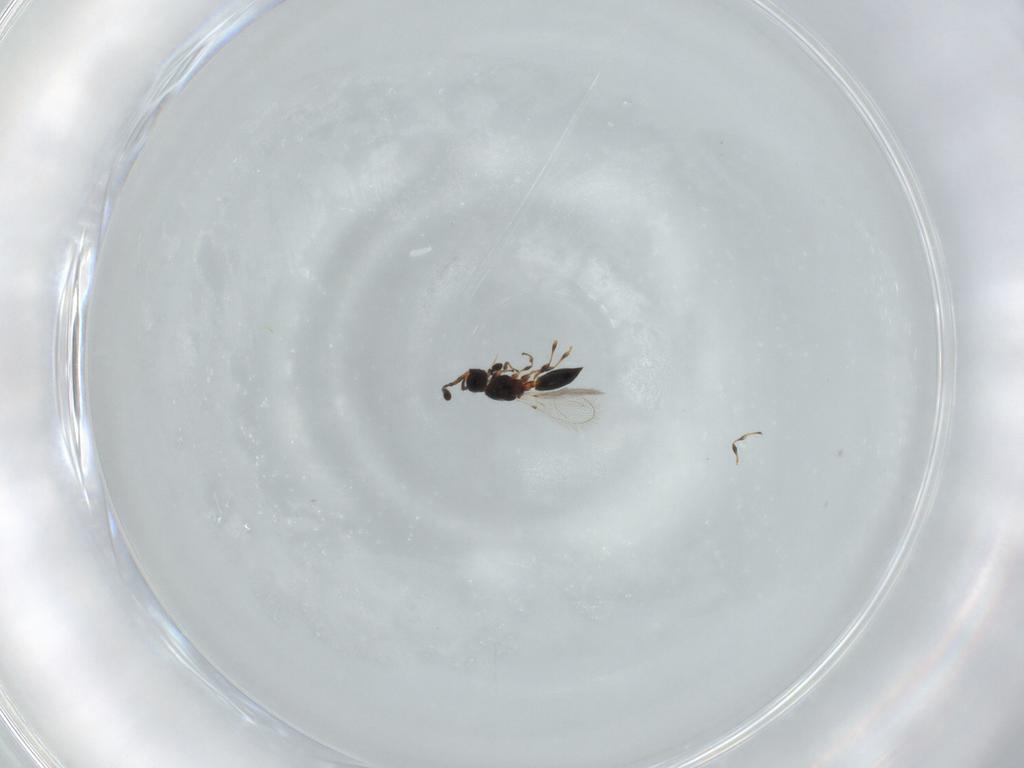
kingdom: Animalia
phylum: Arthropoda
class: Insecta
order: Hymenoptera
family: Diapriidae
